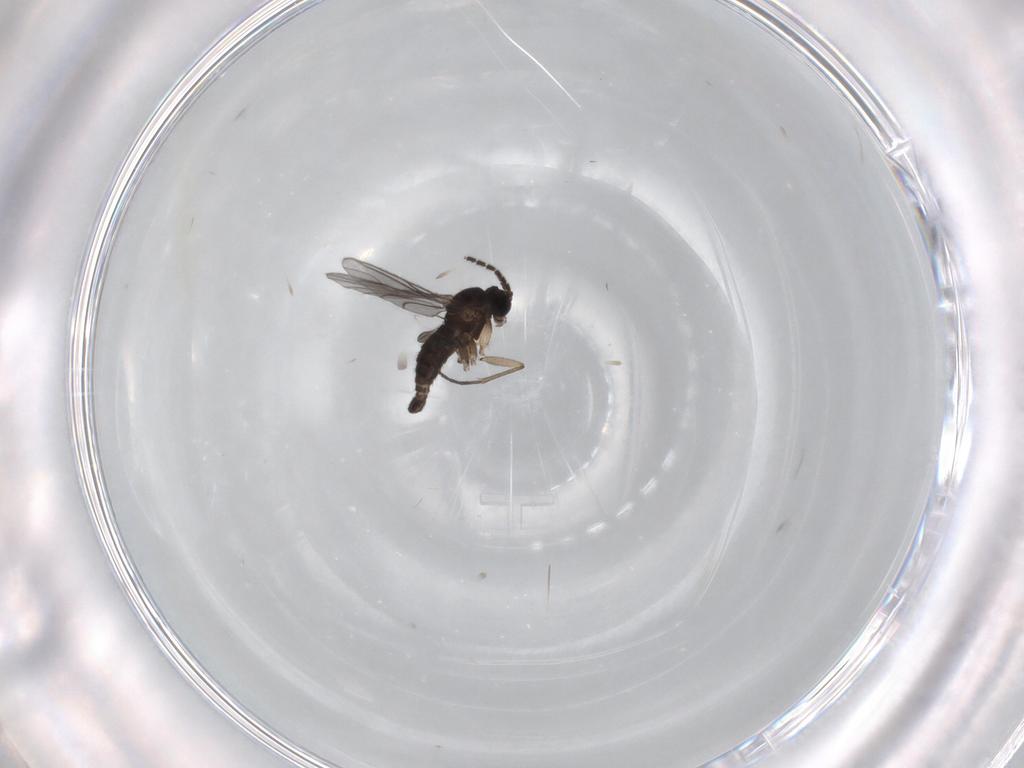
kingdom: Animalia
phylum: Arthropoda
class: Insecta
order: Diptera
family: Sciaridae
